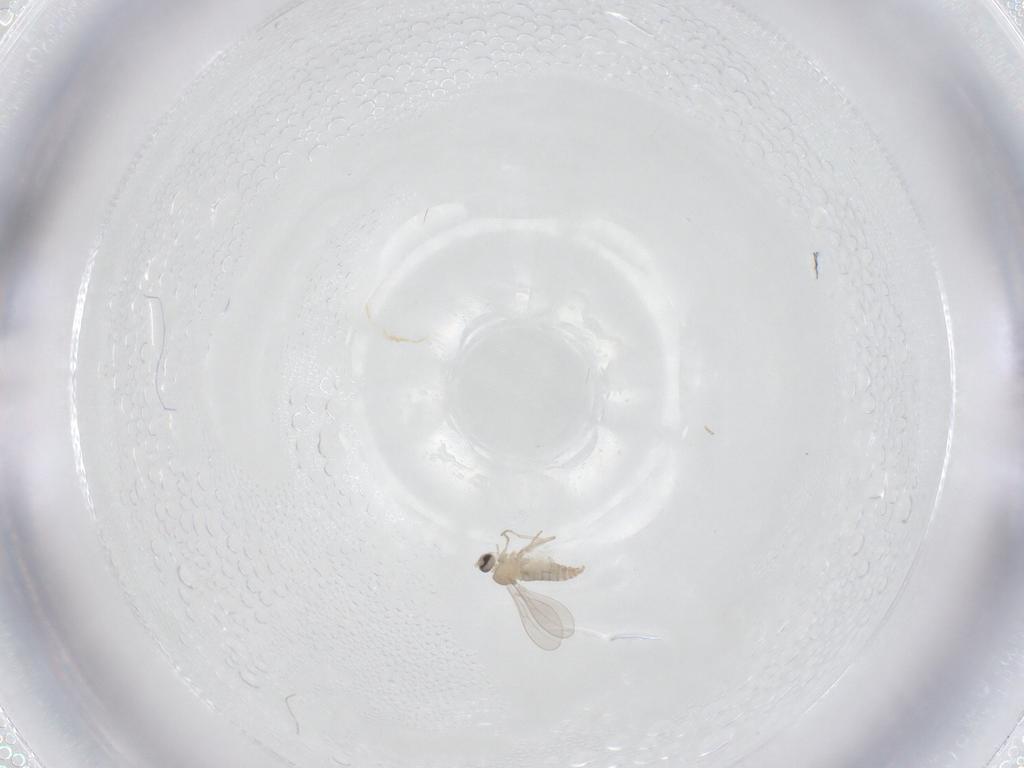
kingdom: Animalia
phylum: Arthropoda
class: Insecta
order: Diptera
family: Cecidomyiidae
